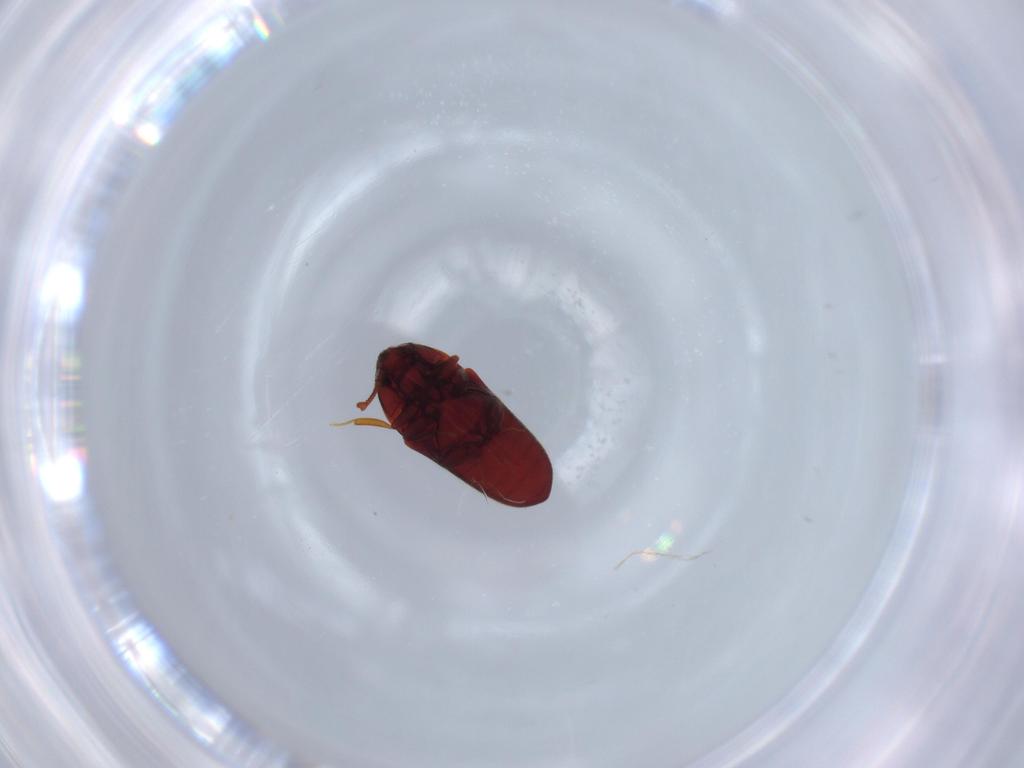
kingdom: Animalia
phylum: Arthropoda
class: Insecta
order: Coleoptera
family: Throscidae
